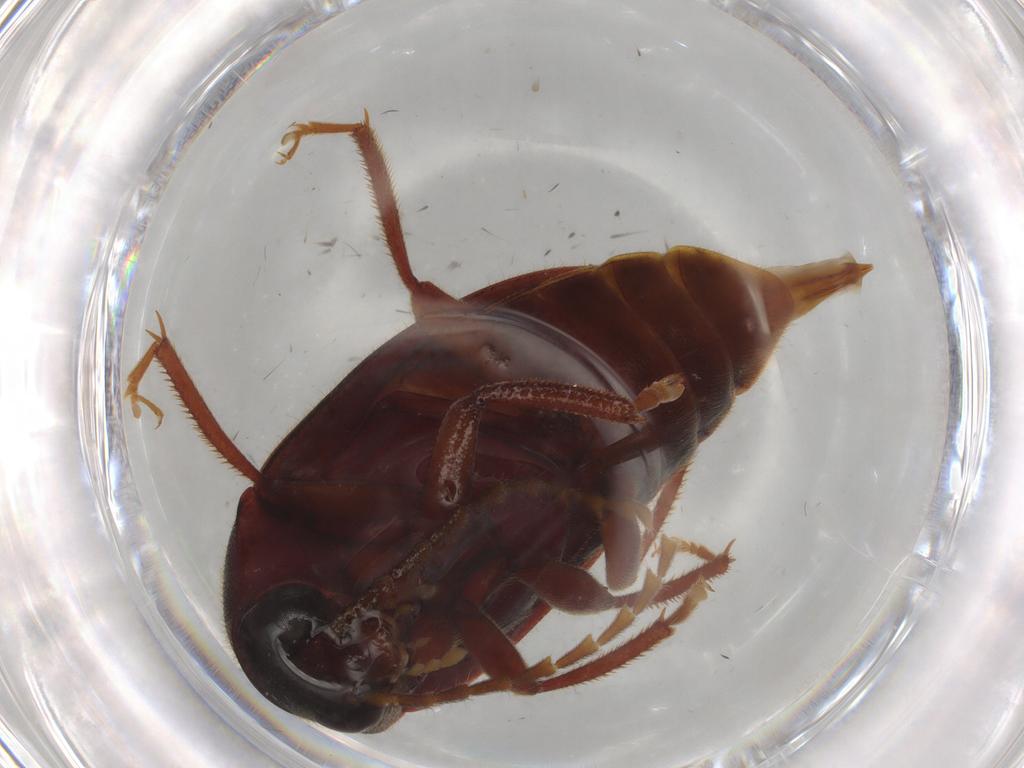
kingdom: Animalia
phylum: Arthropoda
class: Insecta
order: Coleoptera
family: Ptilodactylidae
